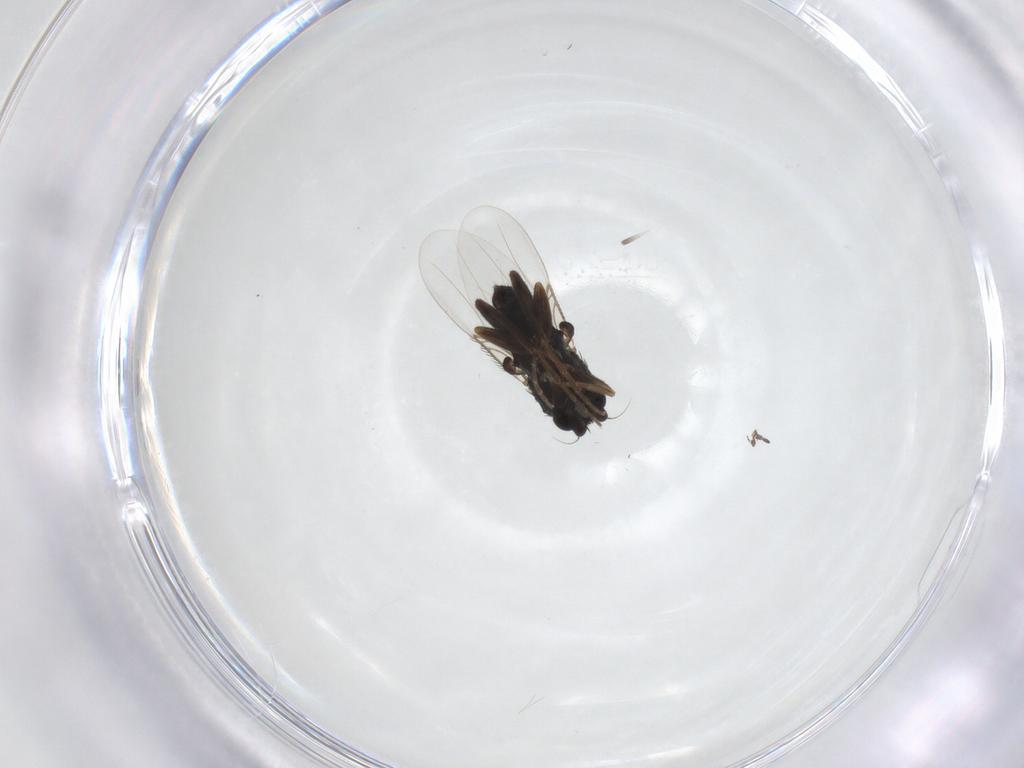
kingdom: Animalia
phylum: Arthropoda
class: Insecta
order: Diptera
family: Phoridae
